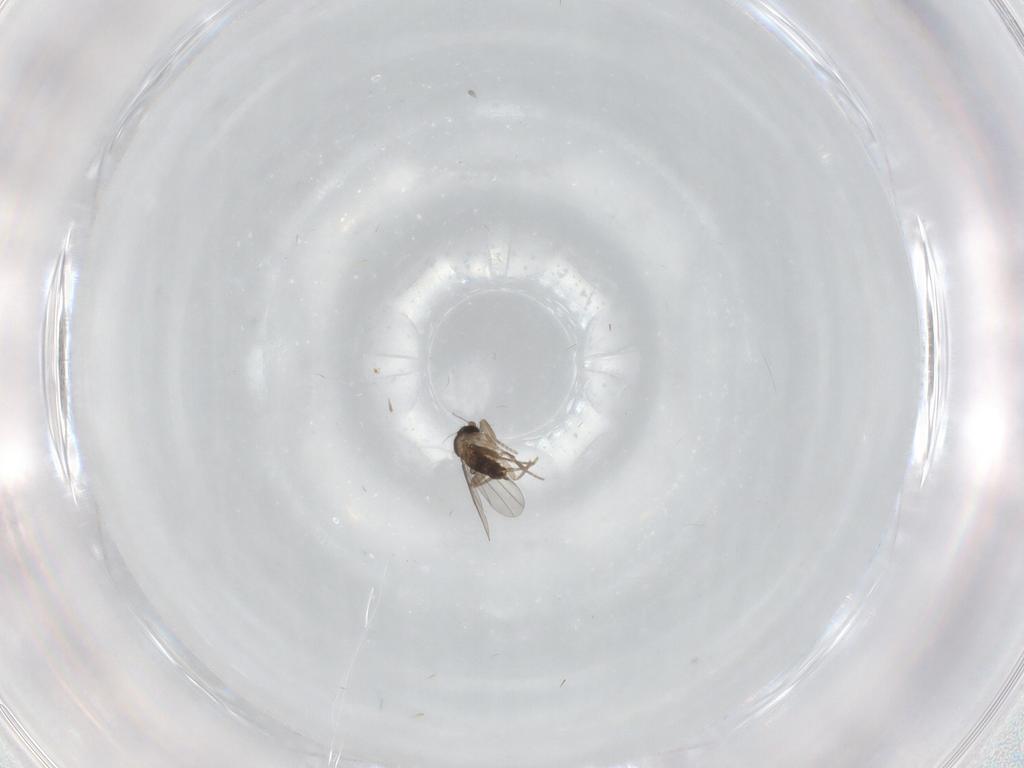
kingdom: Animalia
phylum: Arthropoda
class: Insecta
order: Diptera
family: Sciaridae
